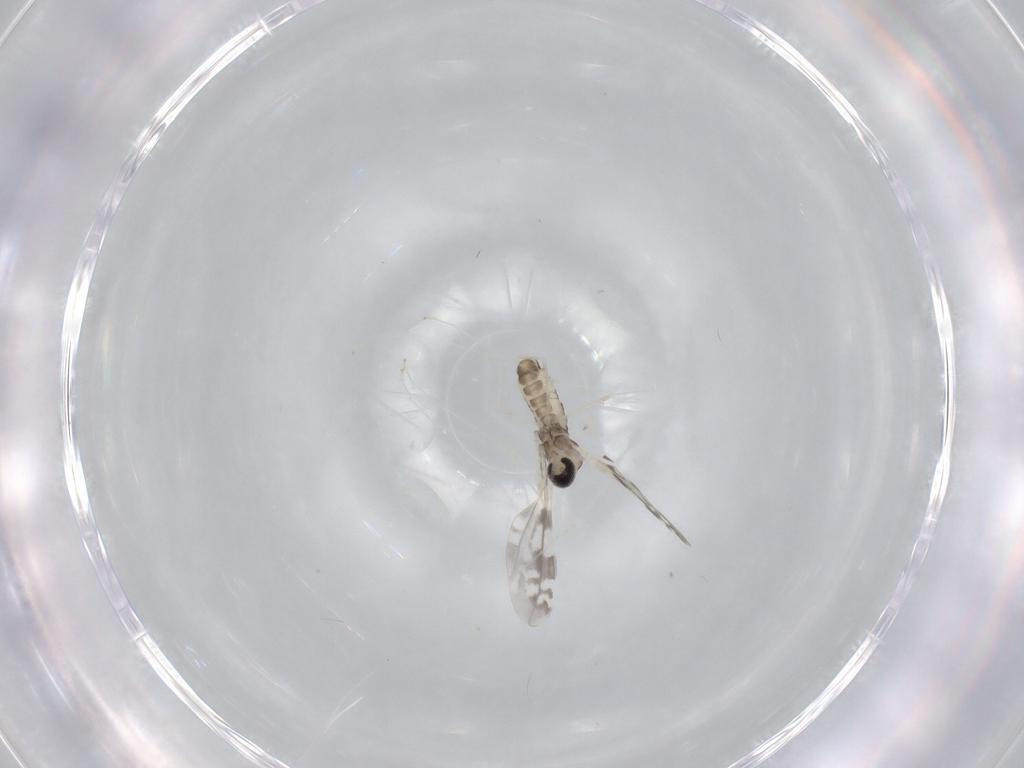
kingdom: Animalia
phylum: Arthropoda
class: Insecta
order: Diptera
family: Cecidomyiidae
